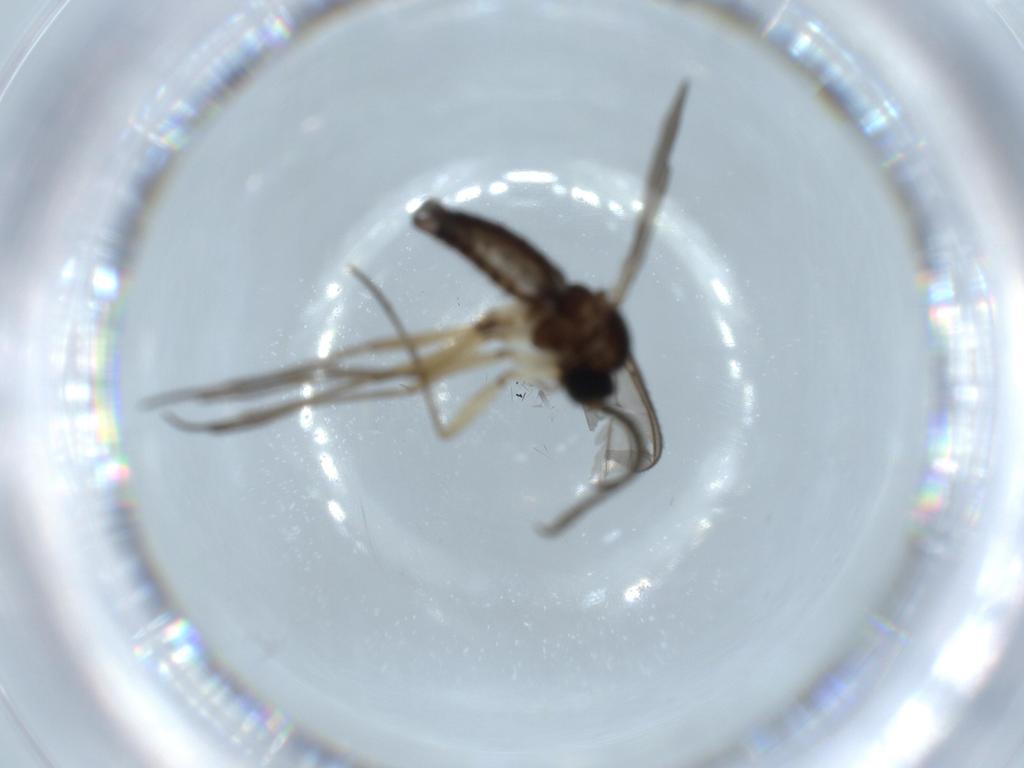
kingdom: Animalia
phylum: Arthropoda
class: Insecta
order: Diptera
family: Sciaridae
